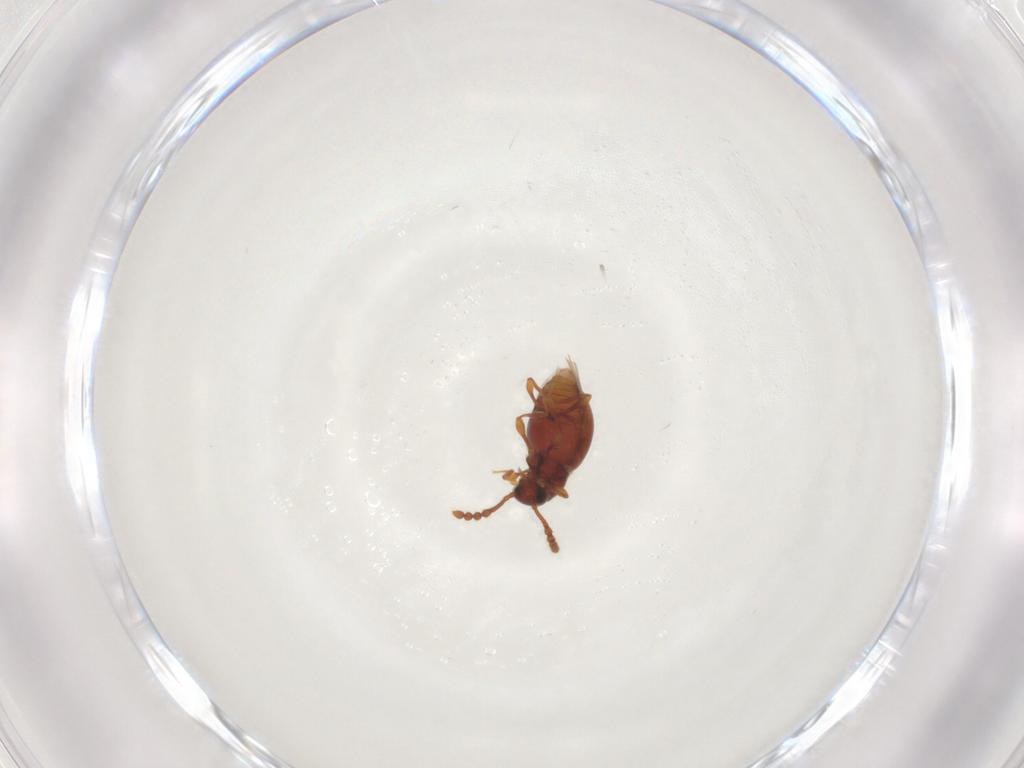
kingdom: Animalia
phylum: Arthropoda
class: Insecta
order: Coleoptera
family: Staphylinidae
